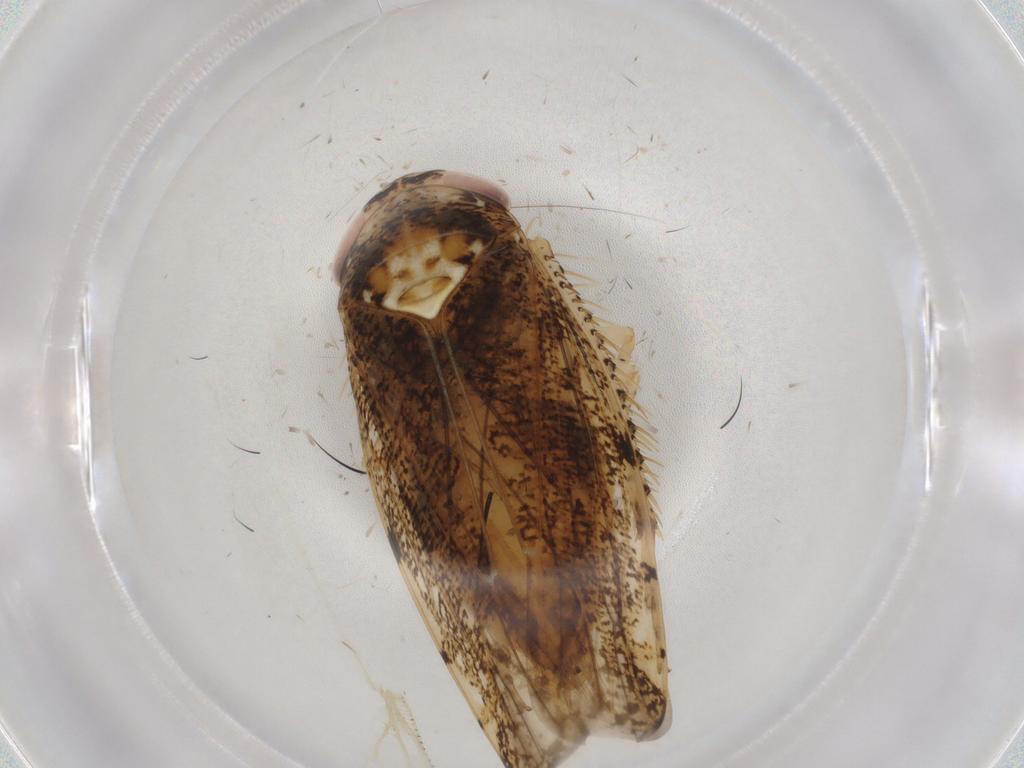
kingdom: Animalia
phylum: Arthropoda
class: Insecta
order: Hemiptera
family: Cicadellidae
